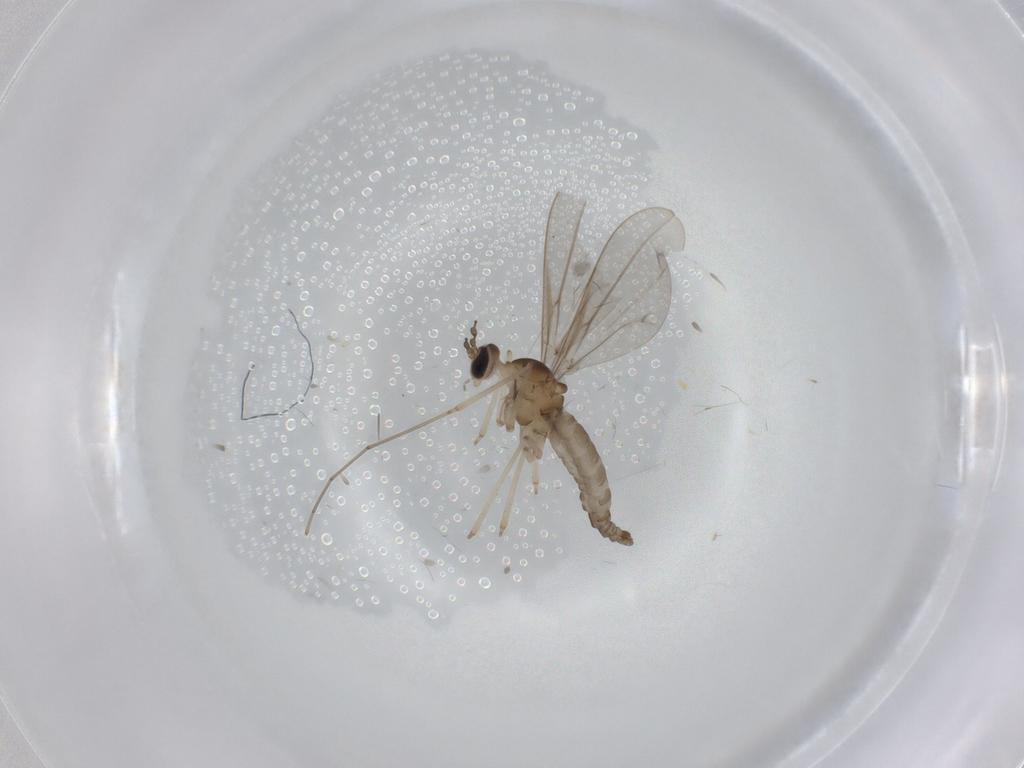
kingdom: Animalia
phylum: Arthropoda
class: Insecta
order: Diptera
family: Cecidomyiidae
